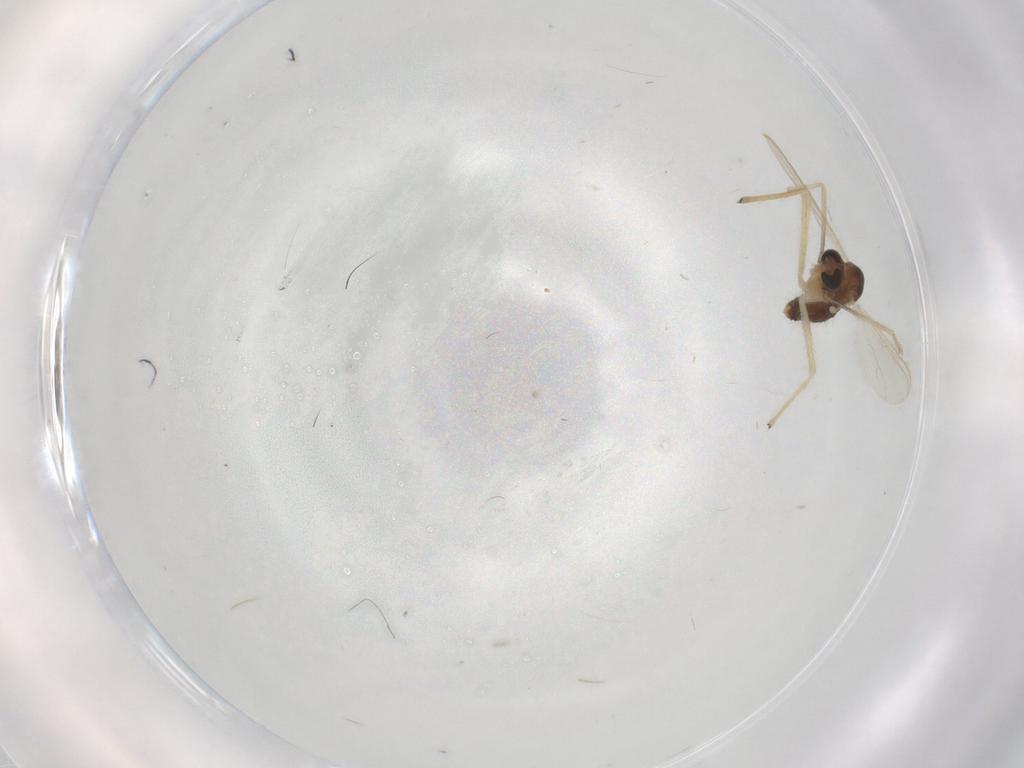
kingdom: Animalia
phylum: Arthropoda
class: Insecta
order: Diptera
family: Chironomidae
